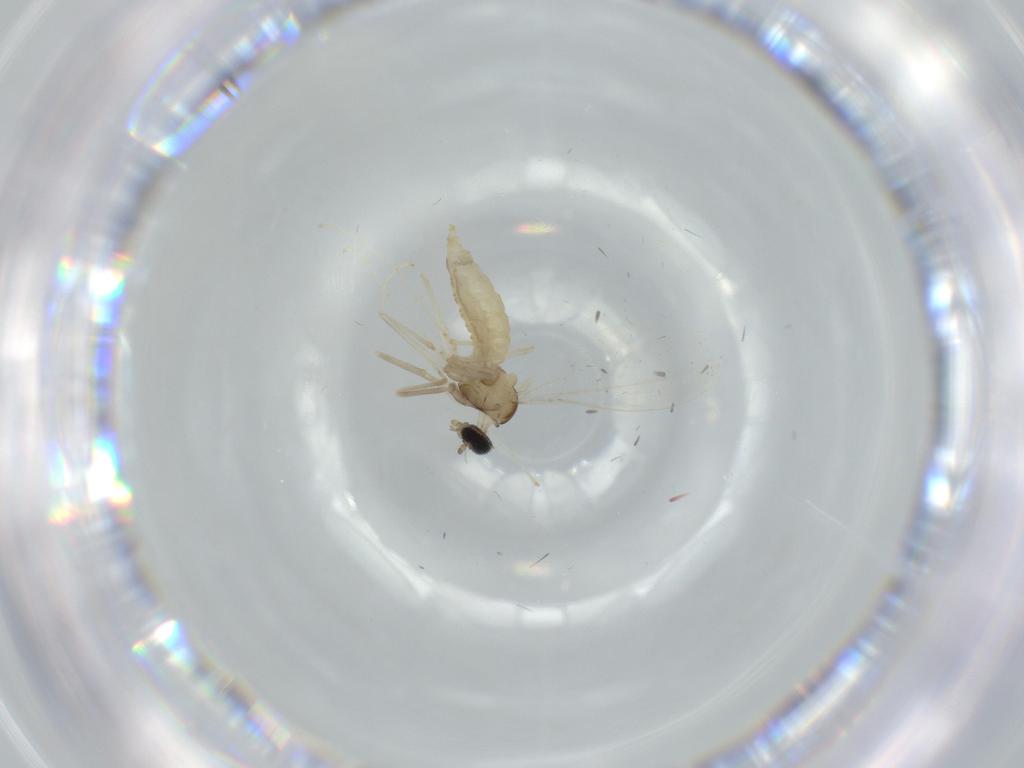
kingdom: Animalia
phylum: Arthropoda
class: Insecta
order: Diptera
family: Cecidomyiidae
